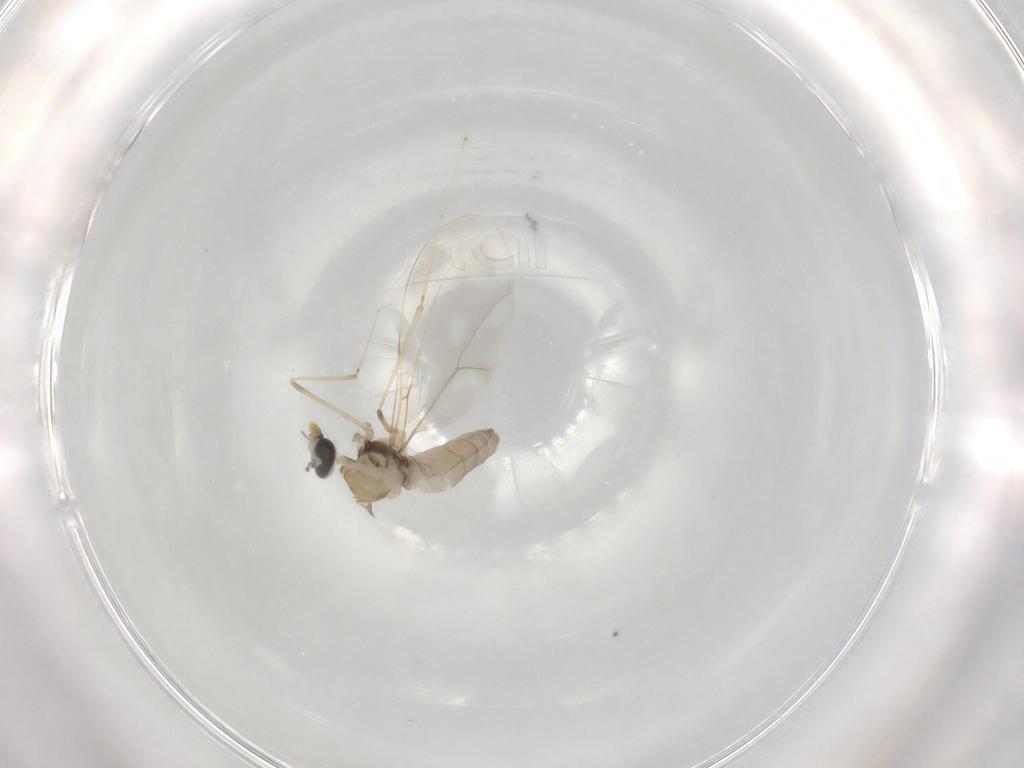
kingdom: Animalia
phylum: Arthropoda
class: Insecta
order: Diptera
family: Cecidomyiidae
